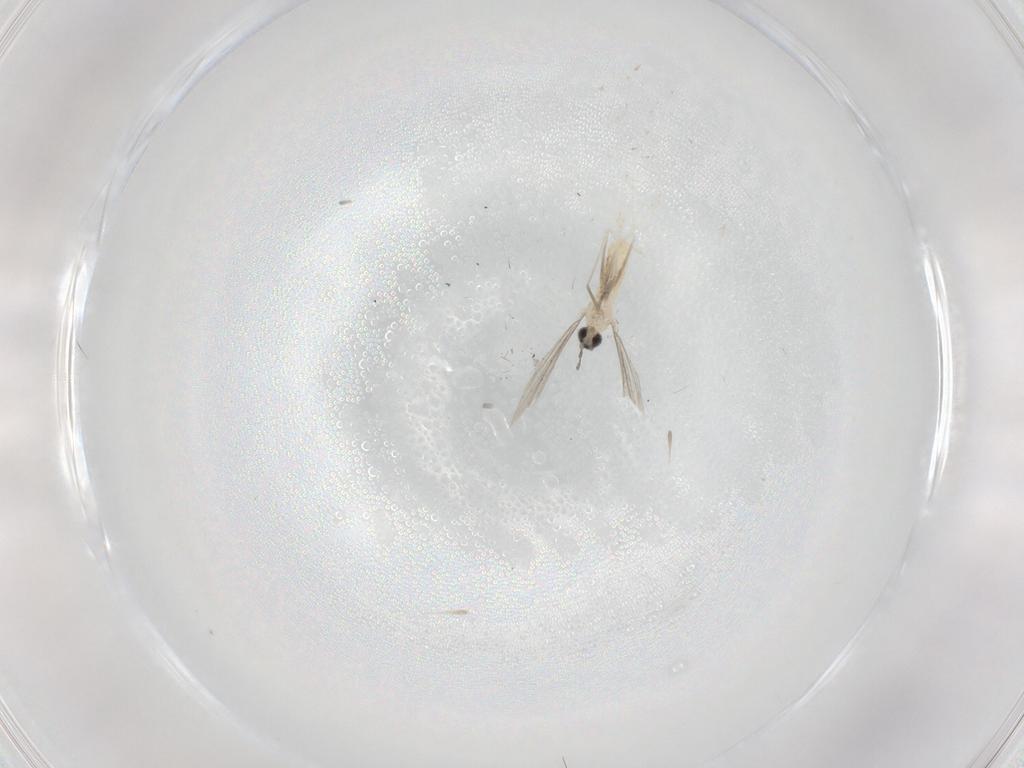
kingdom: Animalia
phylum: Arthropoda
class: Insecta
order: Diptera
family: Cecidomyiidae
